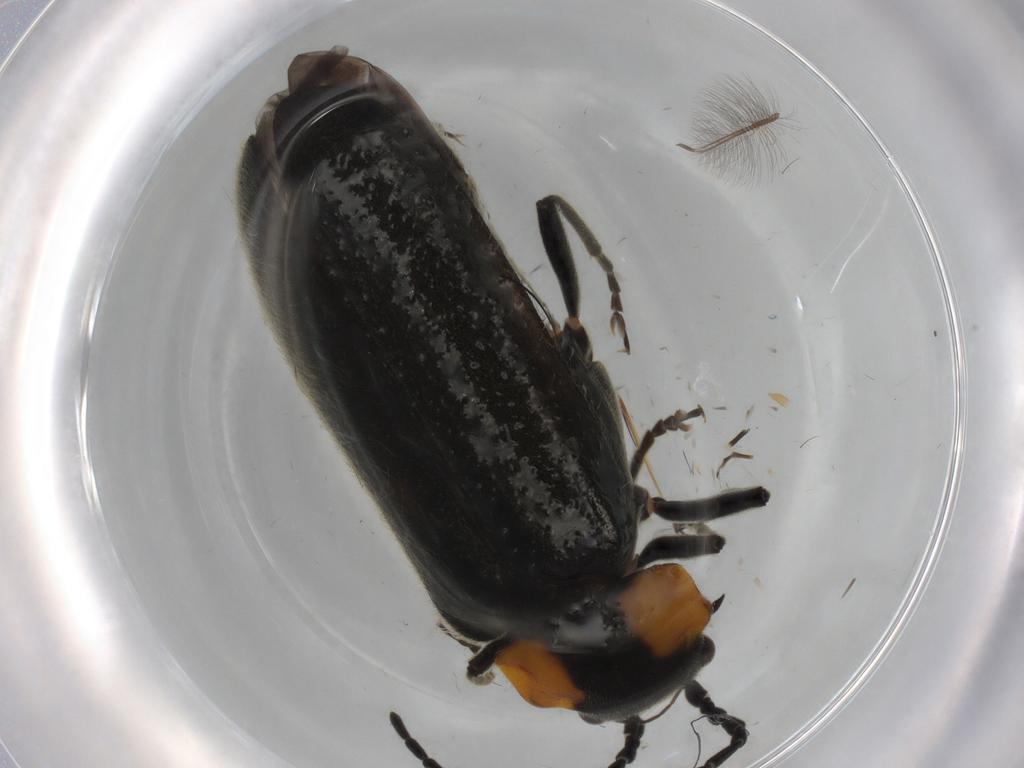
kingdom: Animalia
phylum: Arthropoda
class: Insecta
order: Coleoptera
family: Cantharidae
